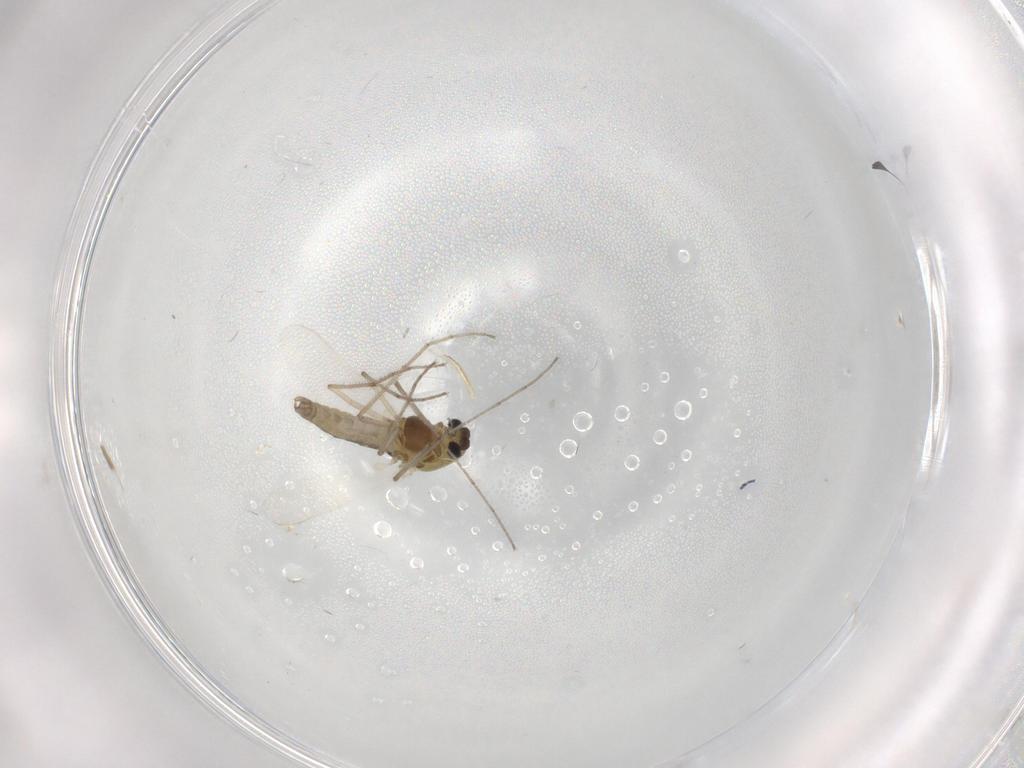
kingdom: Animalia
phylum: Arthropoda
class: Insecta
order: Diptera
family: Chironomidae
